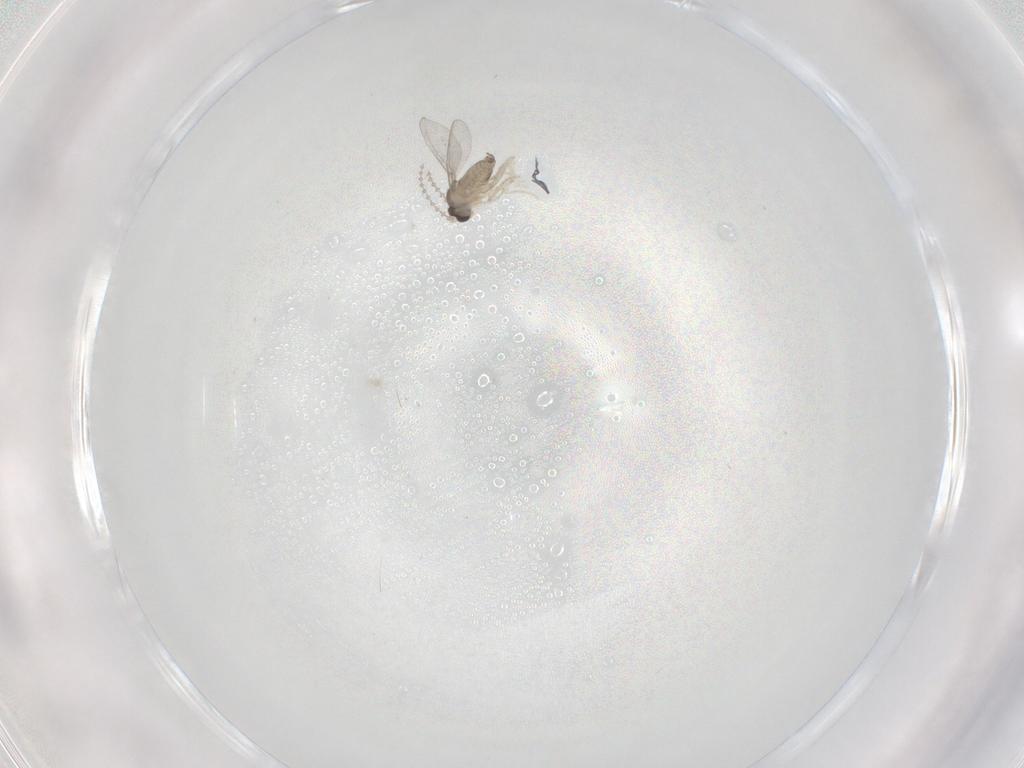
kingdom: Animalia
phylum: Arthropoda
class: Insecta
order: Diptera
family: Cecidomyiidae
